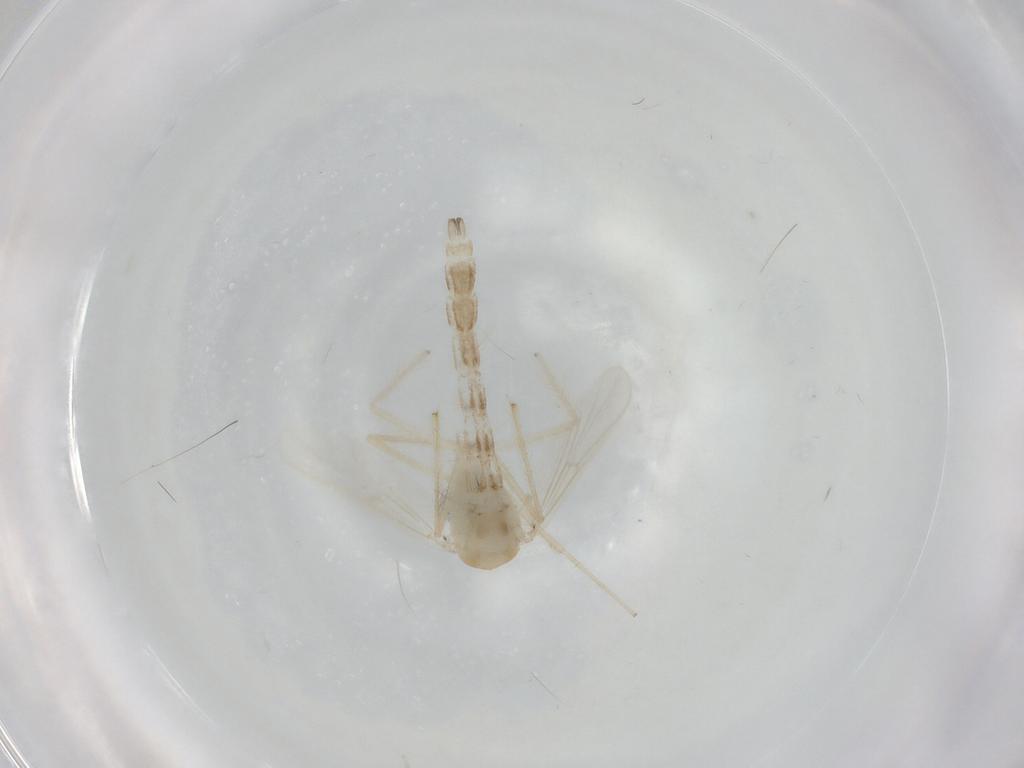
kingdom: Animalia
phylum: Arthropoda
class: Insecta
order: Diptera
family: Chironomidae
